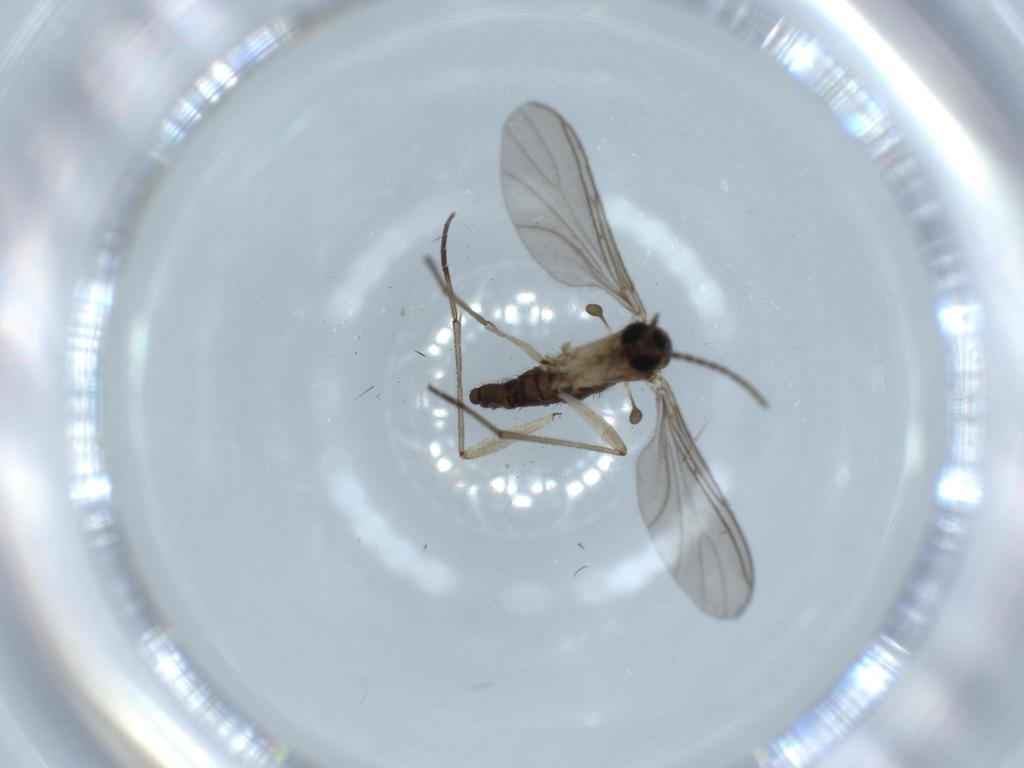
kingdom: Animalia
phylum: Arthropoda
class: Insecta
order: Diptera
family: Sciaridae
